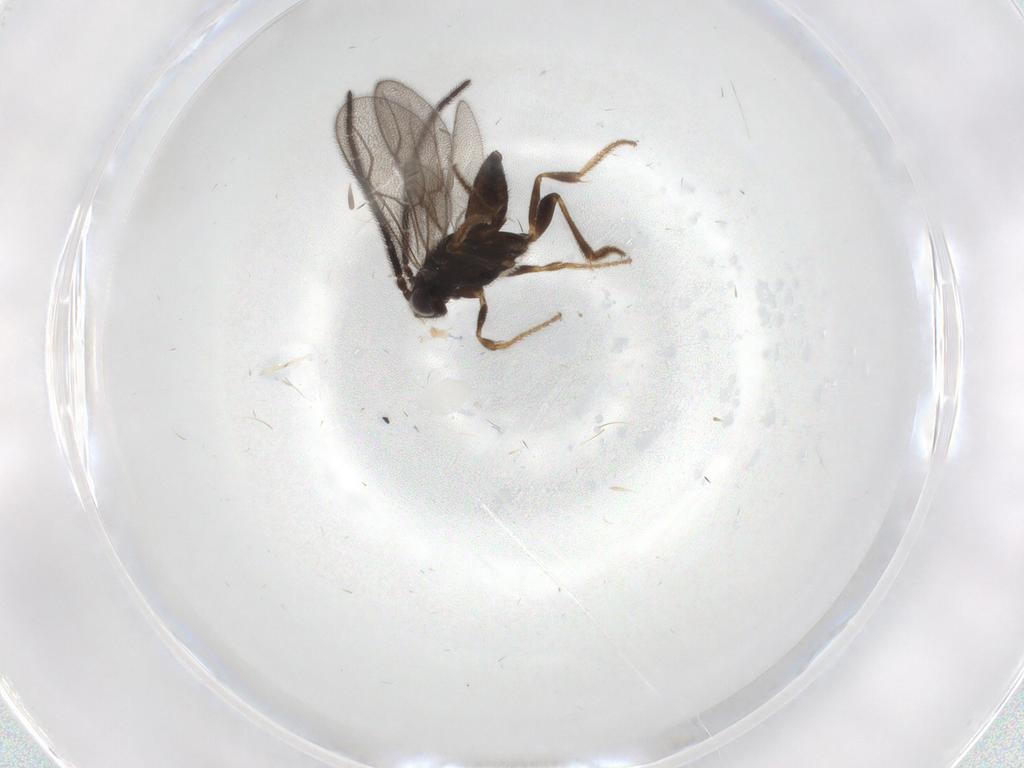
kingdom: Animalia
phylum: Arthropoda
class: Insecta
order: Hymenoptera
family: Dryinidae
